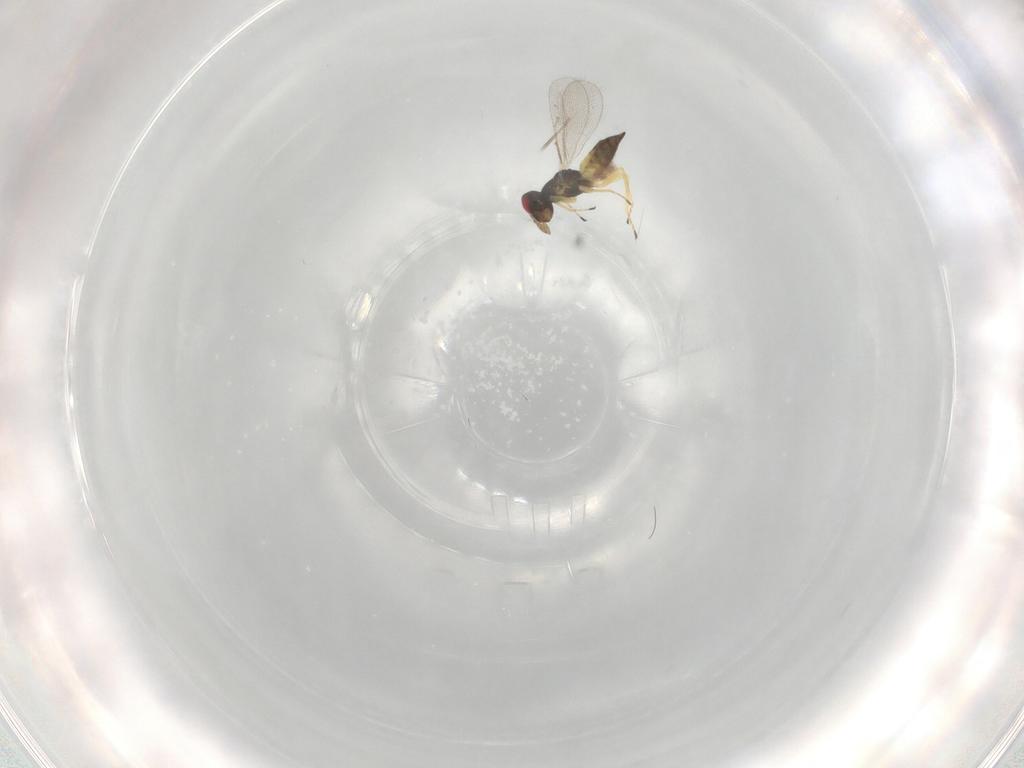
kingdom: Animalia
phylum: Arthropoda
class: Insecta
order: Hymenoptera
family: Eulophidae
